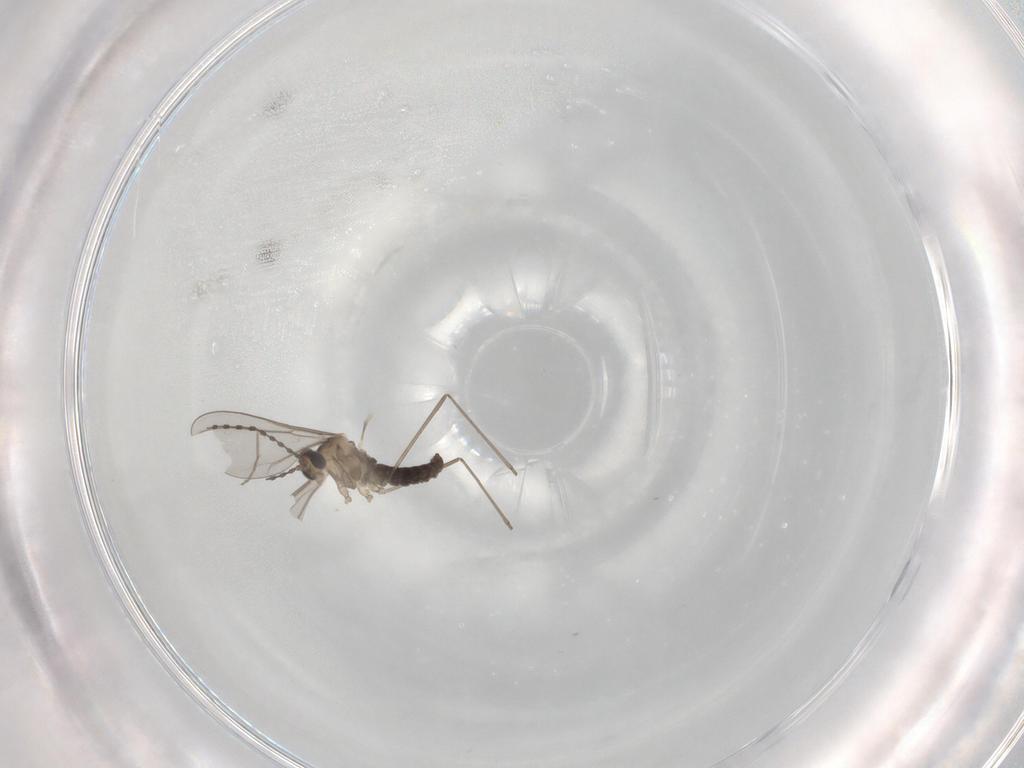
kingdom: Animalia
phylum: Arthropoda
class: Insecta
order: Diptera
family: Cecidomyiidae
